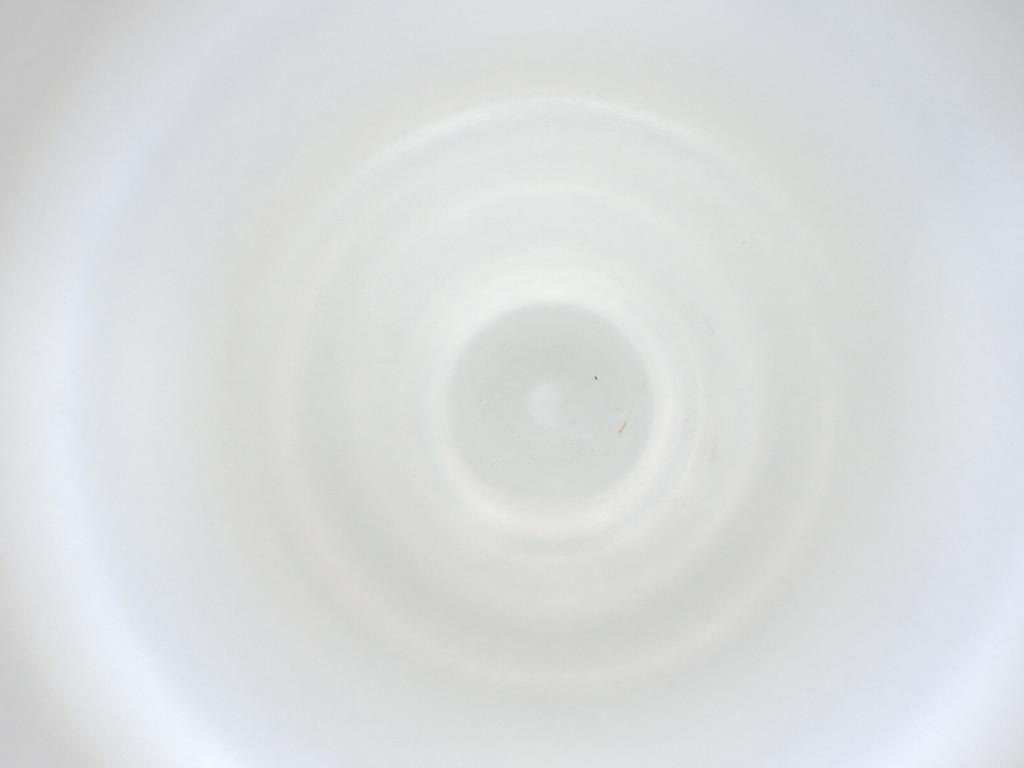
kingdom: Animalia
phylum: Arthropoda
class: Insecta
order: Diptera
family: Cecidomyiidae
